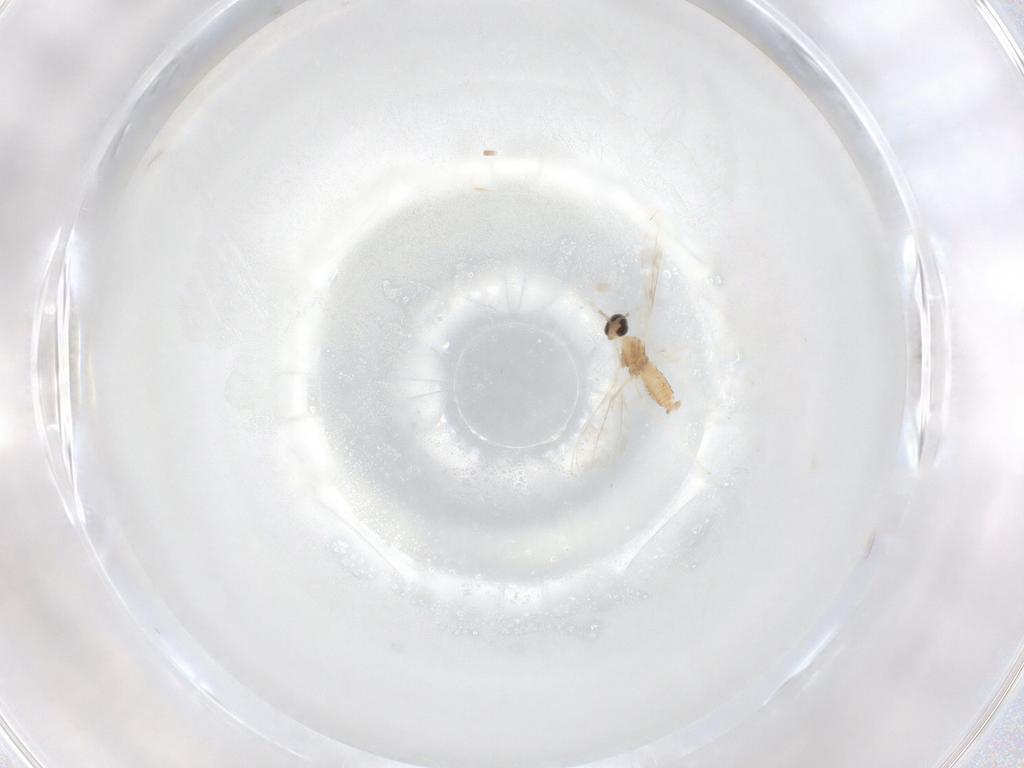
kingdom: Animalia
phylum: Arthropoda
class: Insecta
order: Diptera
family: Cecidomyiidae
